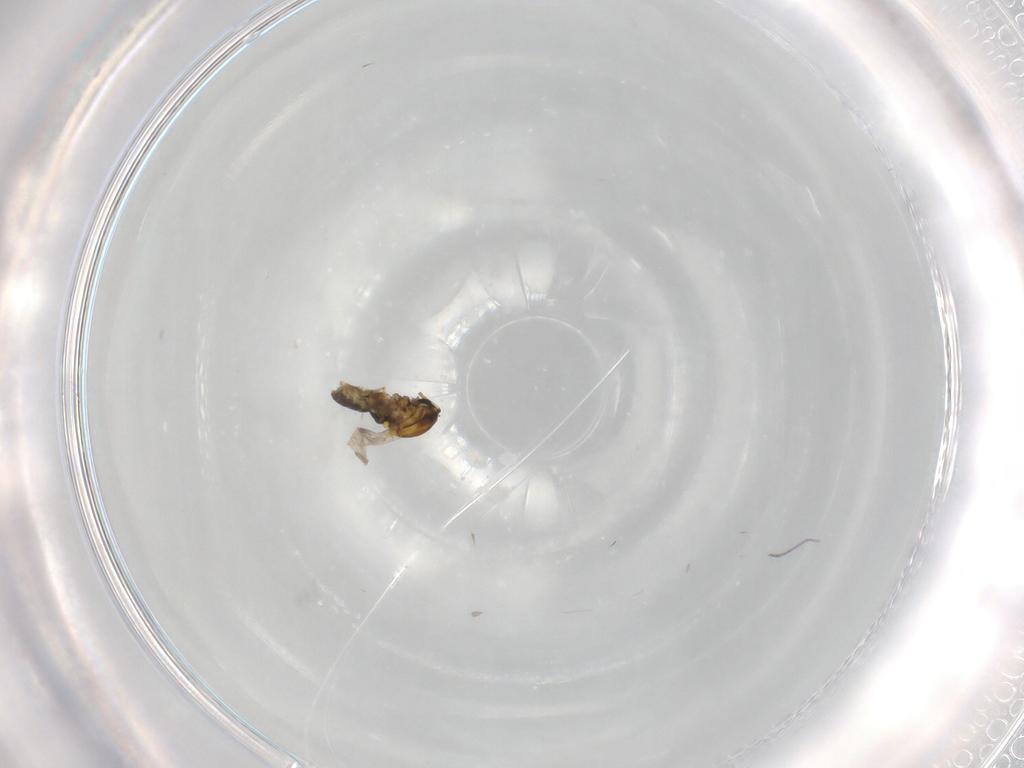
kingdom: Animalia
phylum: Arthropoda
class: Insecta
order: Diptera
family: Ceratopogonidae
